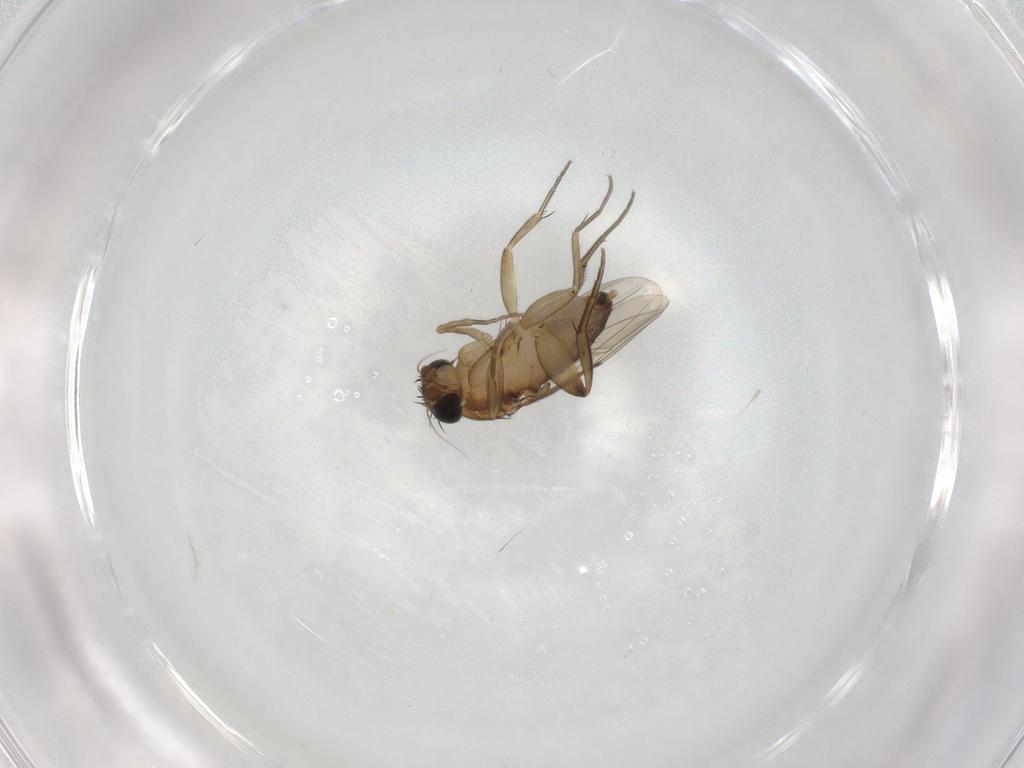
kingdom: Animalia
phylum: Arthropoda
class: Insecta
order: Diptera
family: Phoridae
